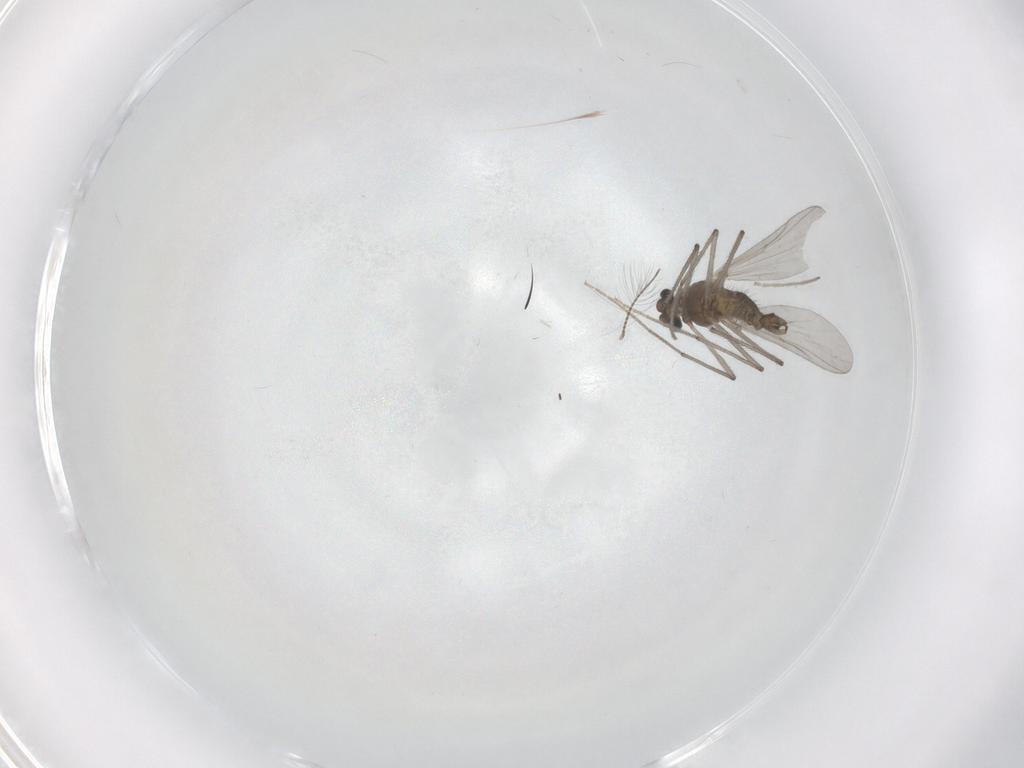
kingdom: Animalia
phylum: Arthropoda
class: Insecta
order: Diptera
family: Chironomidae
